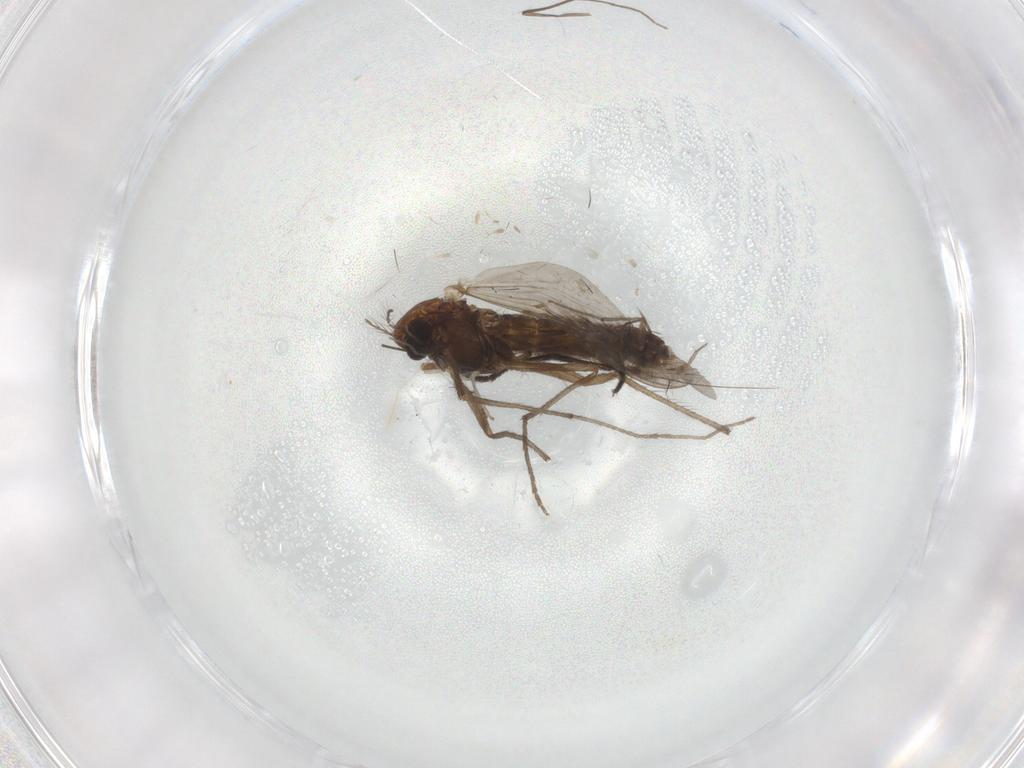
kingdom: Animalia
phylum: Arthropoda
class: Insecta
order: Diptera
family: Chironomidae
